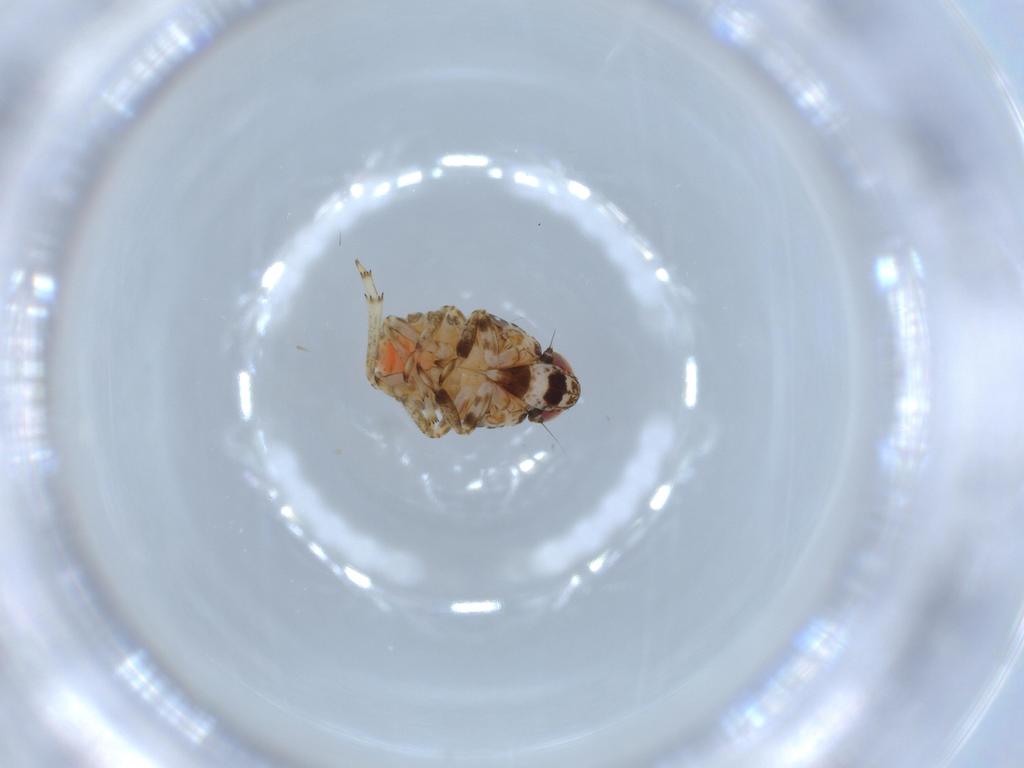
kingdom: Animalia
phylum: Arthropoda
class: Insecta
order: Hemiptera
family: Issidae
